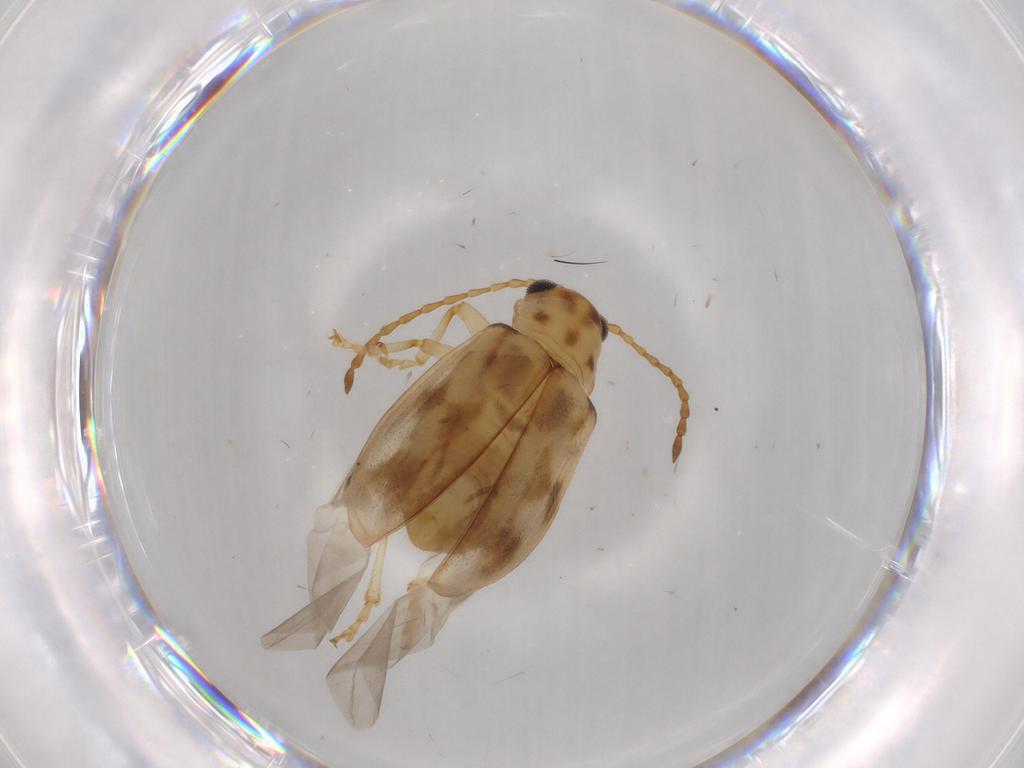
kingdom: Animalia
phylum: Arthropoda
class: Insecta
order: Coleoptera
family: Chrysomelidae
